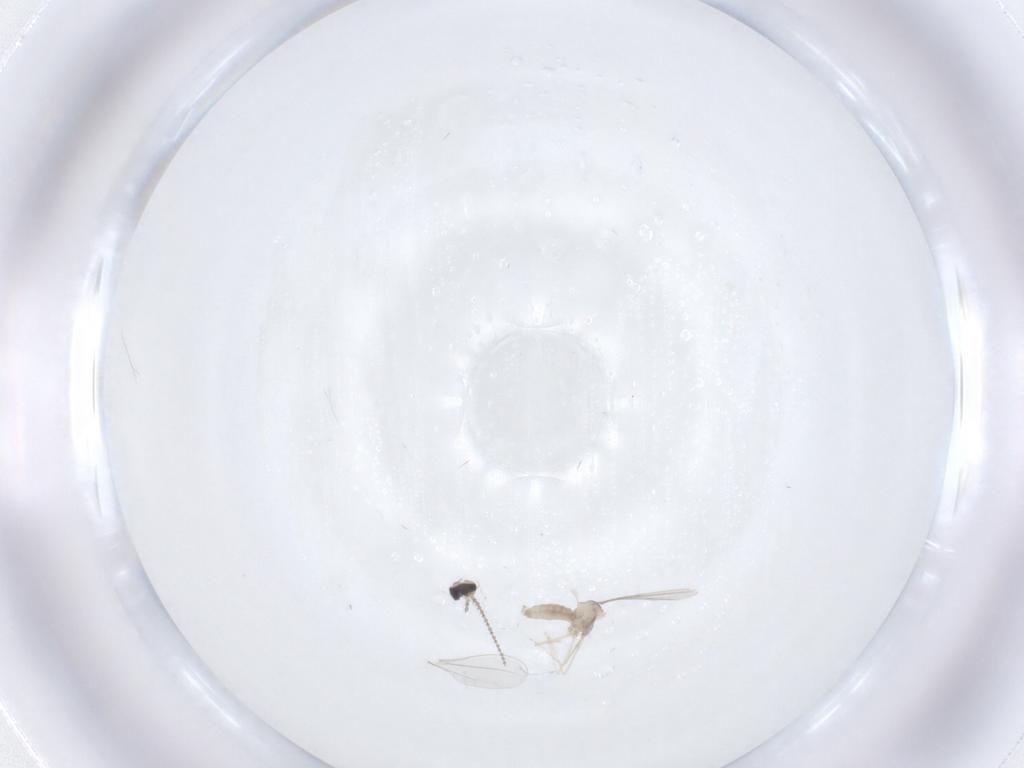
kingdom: Animalia
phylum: Arthropoda
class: Insecta
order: Diptera
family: Cecidomyiidae
